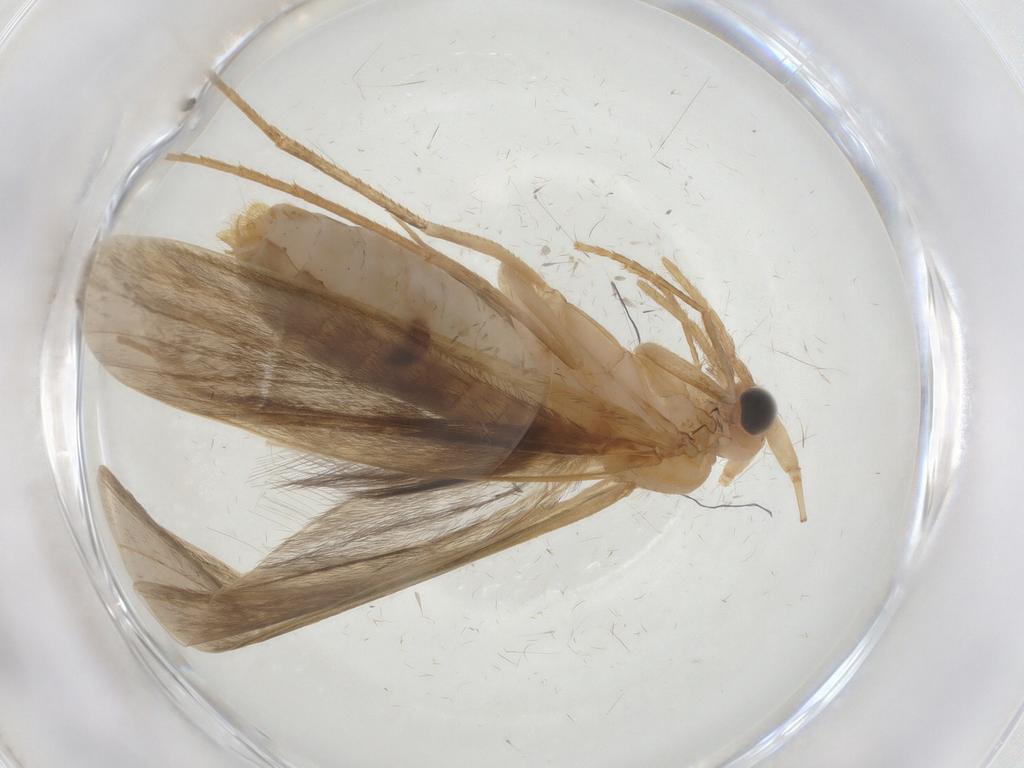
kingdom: Animalia
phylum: Arthropoda
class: Insecta
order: Trichoptera
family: Leptoceridae
